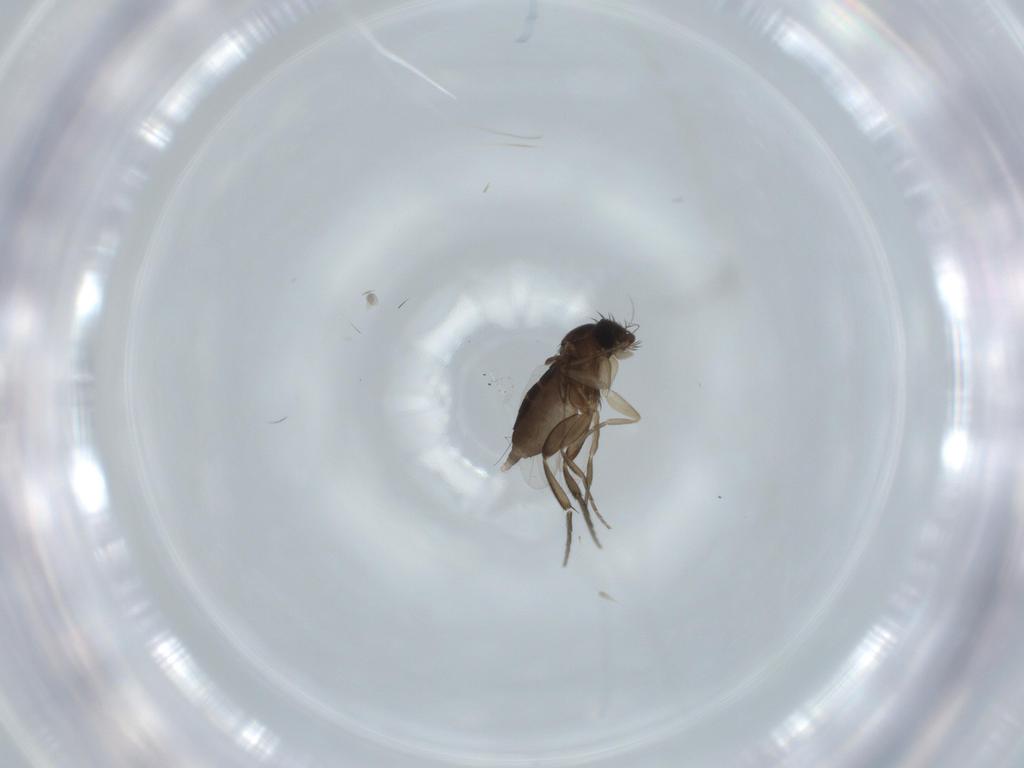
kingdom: Animalia
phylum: Arthropoda
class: Insecta
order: Diptera
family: Phoridae
